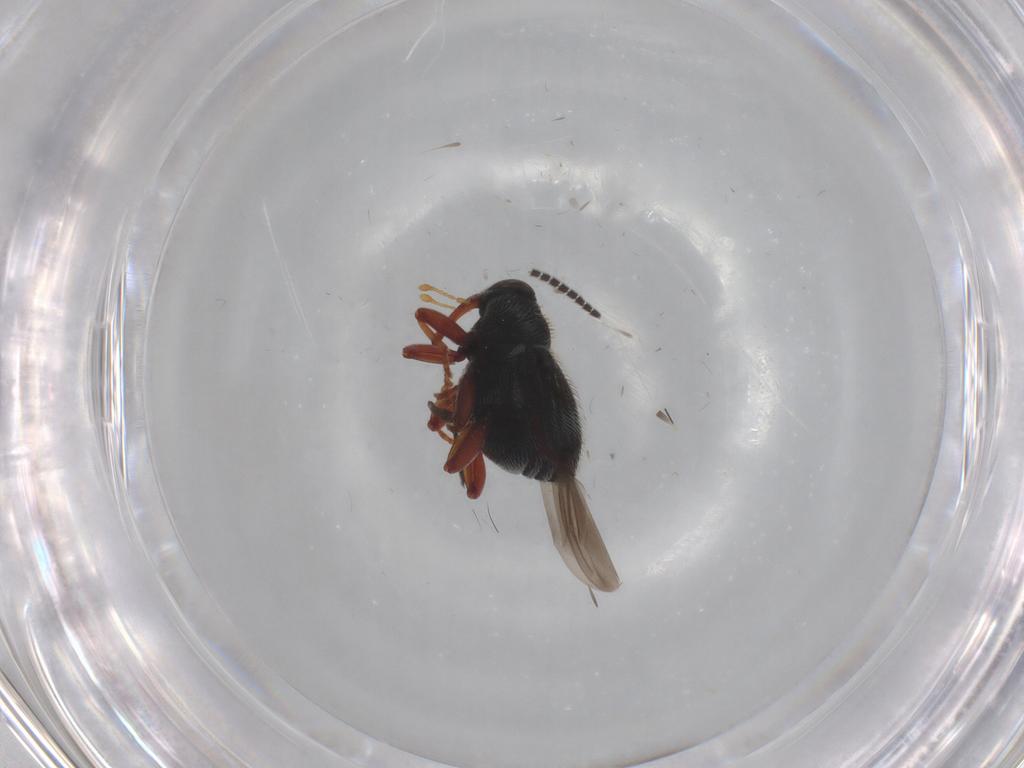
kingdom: Animalia
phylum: Arthropoda
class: Insecta
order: Coleoptera
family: Curculionidae
